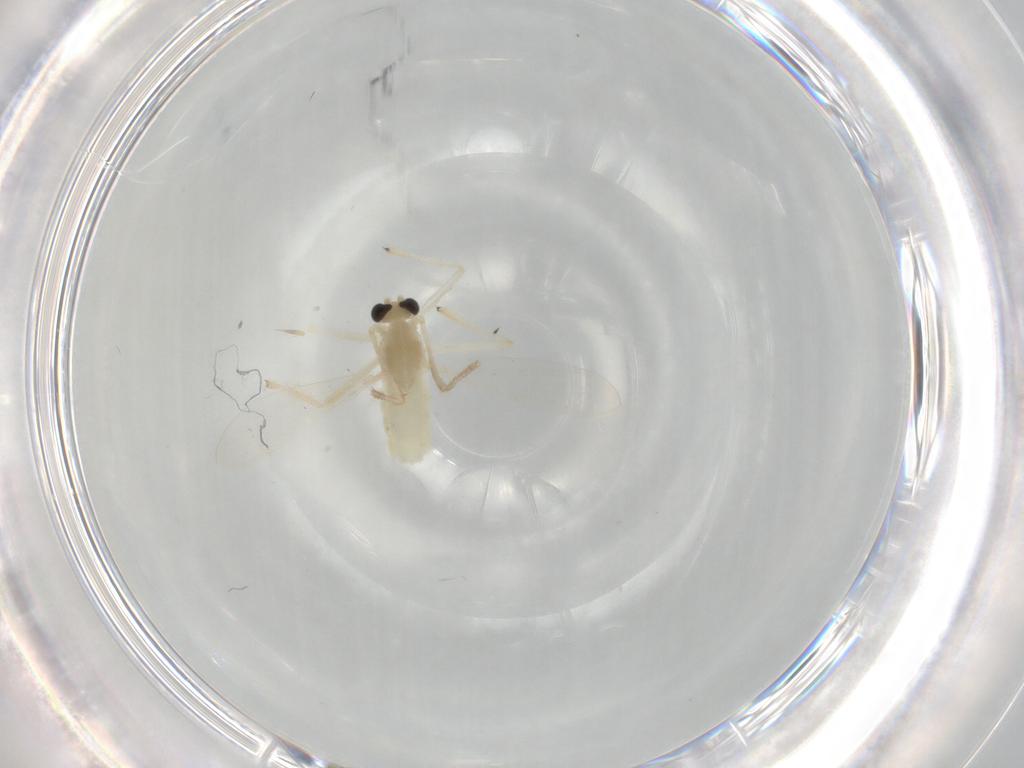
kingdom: Animalia
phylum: Arthropoda
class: Insecta
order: Diptera
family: Chironomidae
